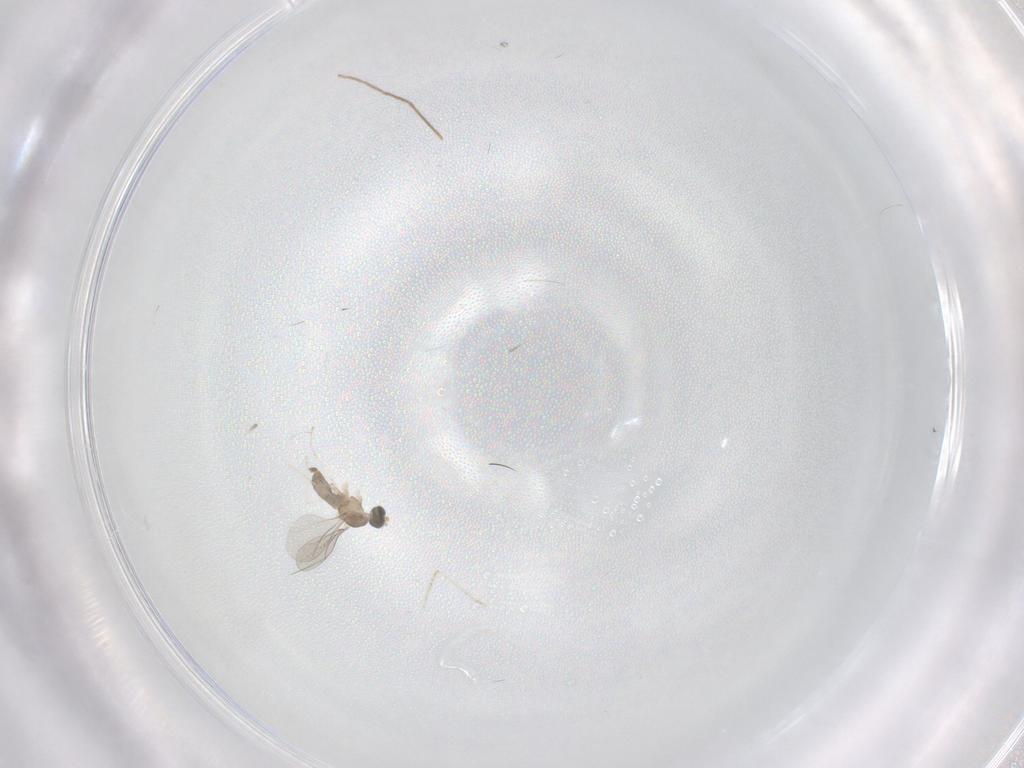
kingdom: Animalia
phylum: Arthropoda
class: Insecta
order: Diptera
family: Cecidomyiidae
